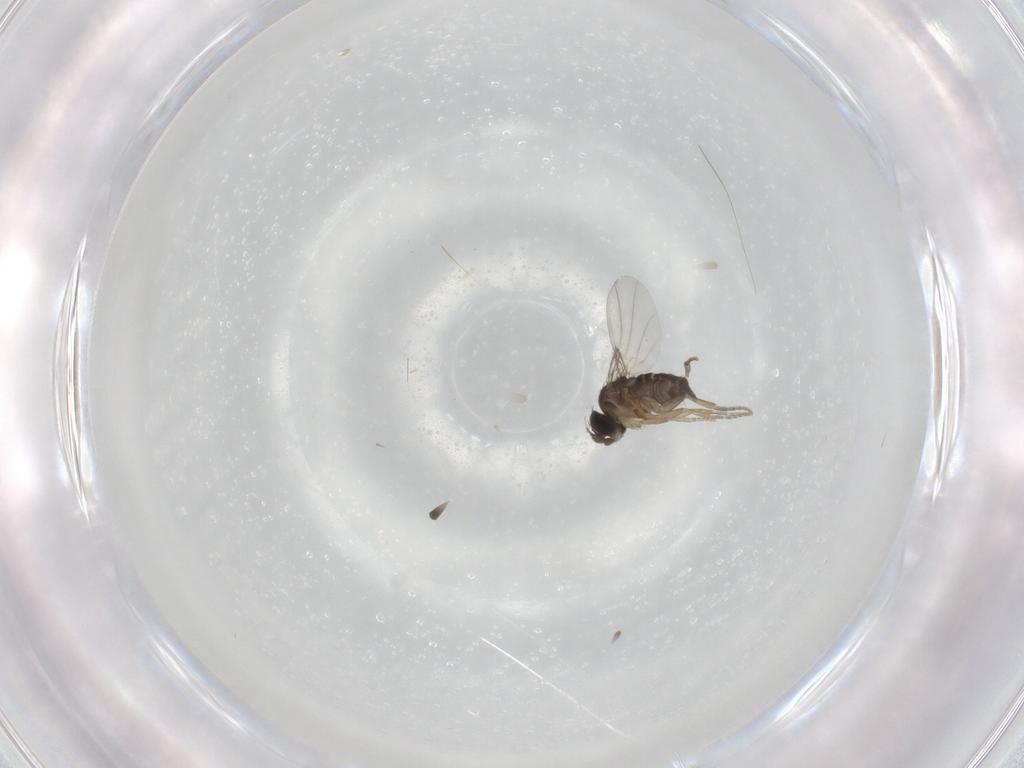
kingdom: Animalia
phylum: Arthropoda
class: Insecta
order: Diptera
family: Phoridae
